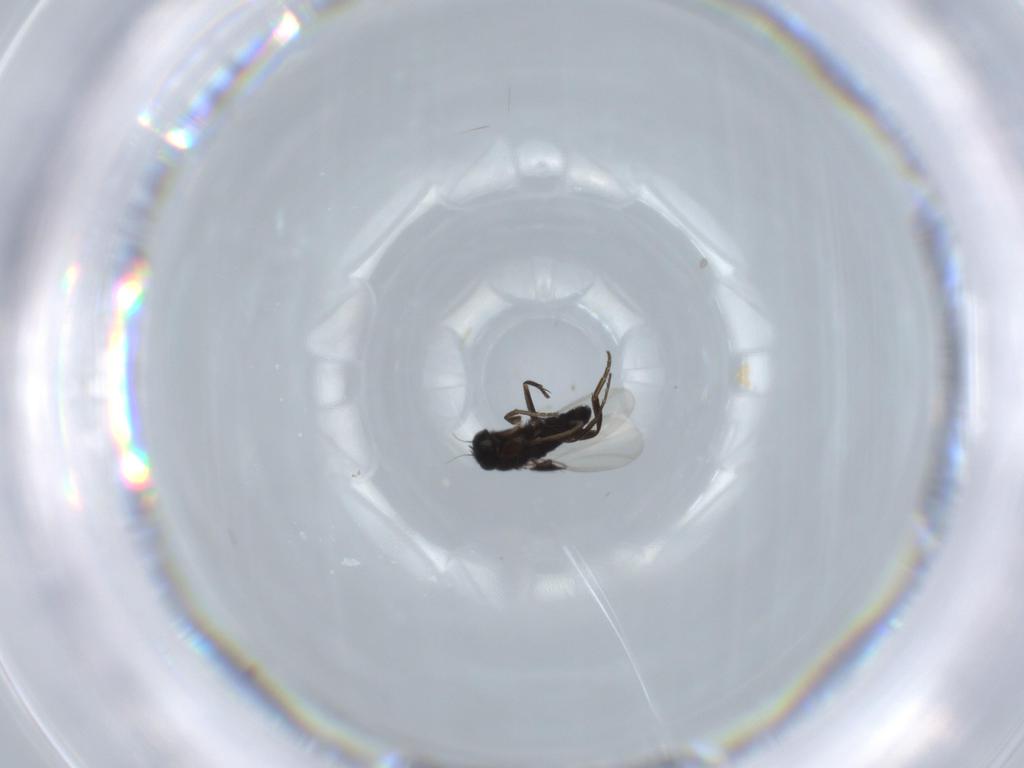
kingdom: Animalia
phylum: Arthropoda
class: Insecta
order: Diptera
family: Phoridae
